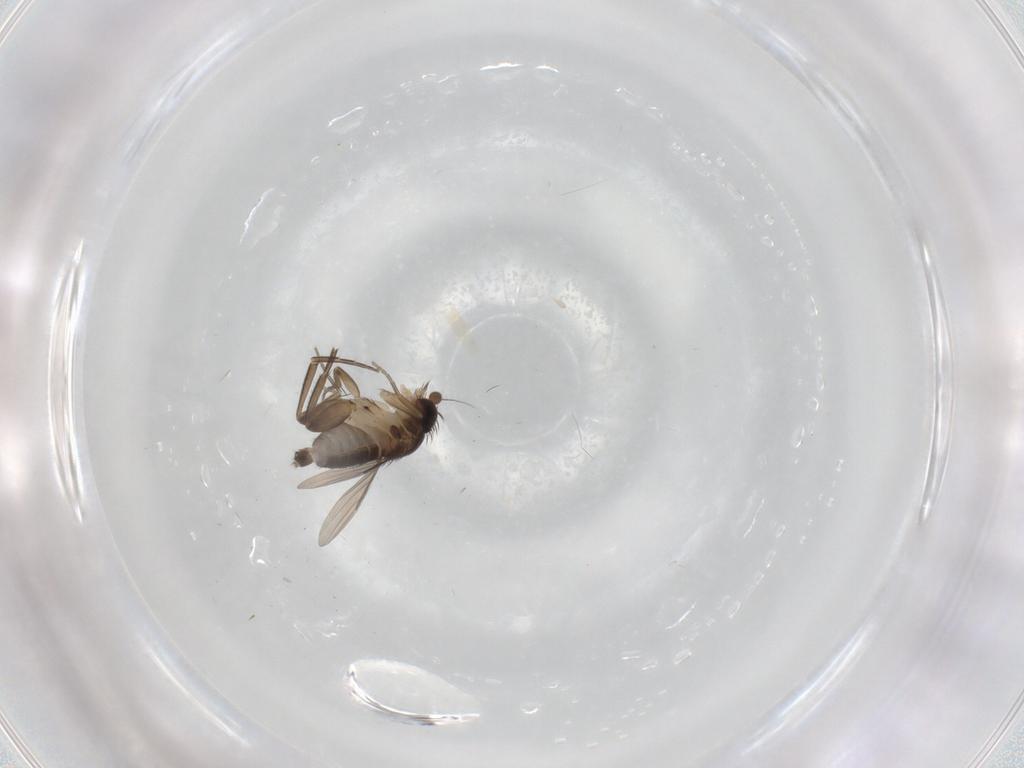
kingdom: Animalia
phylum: Arthropoda
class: Insecta
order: Diptera
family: Phoridae
